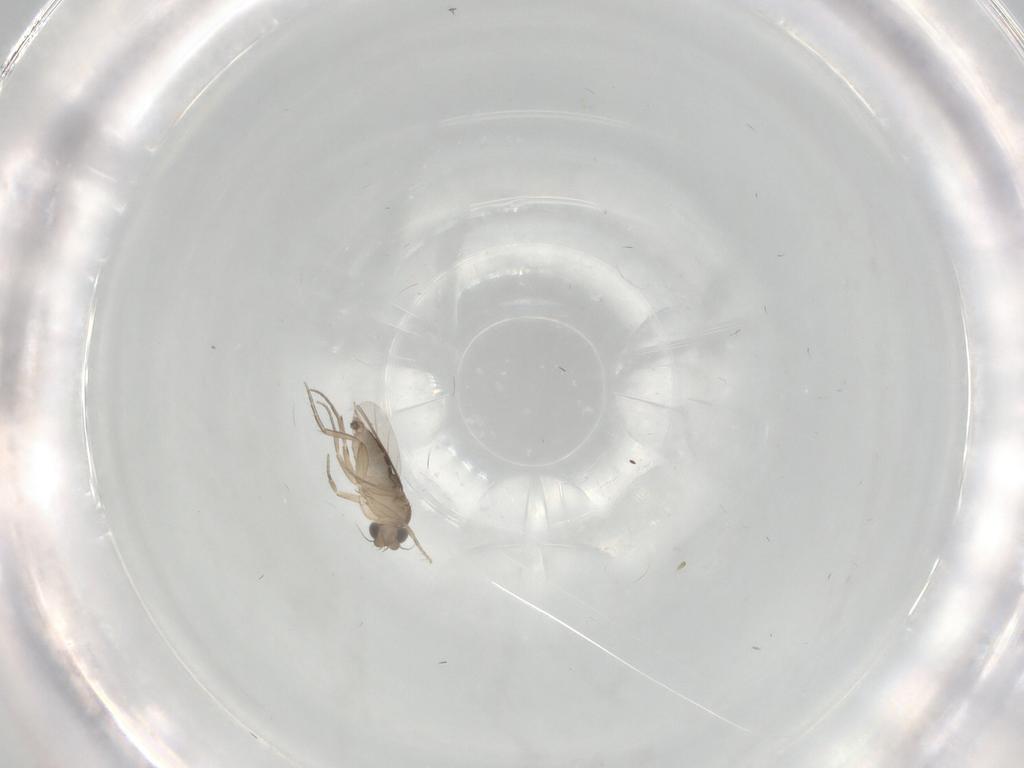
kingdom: Animalia
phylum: Arthropoda
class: Insecta
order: Diptera
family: Phoridae
